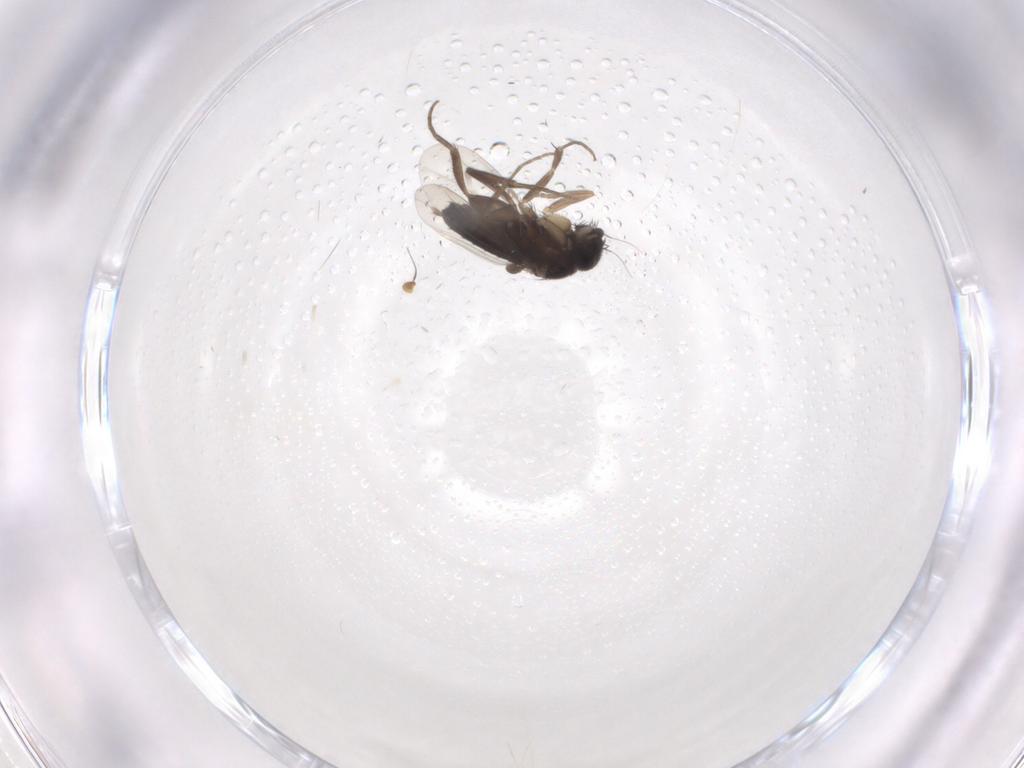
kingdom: Animalia
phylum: Arthropoda
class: Insecta
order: Diptera
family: Agromyzidae
